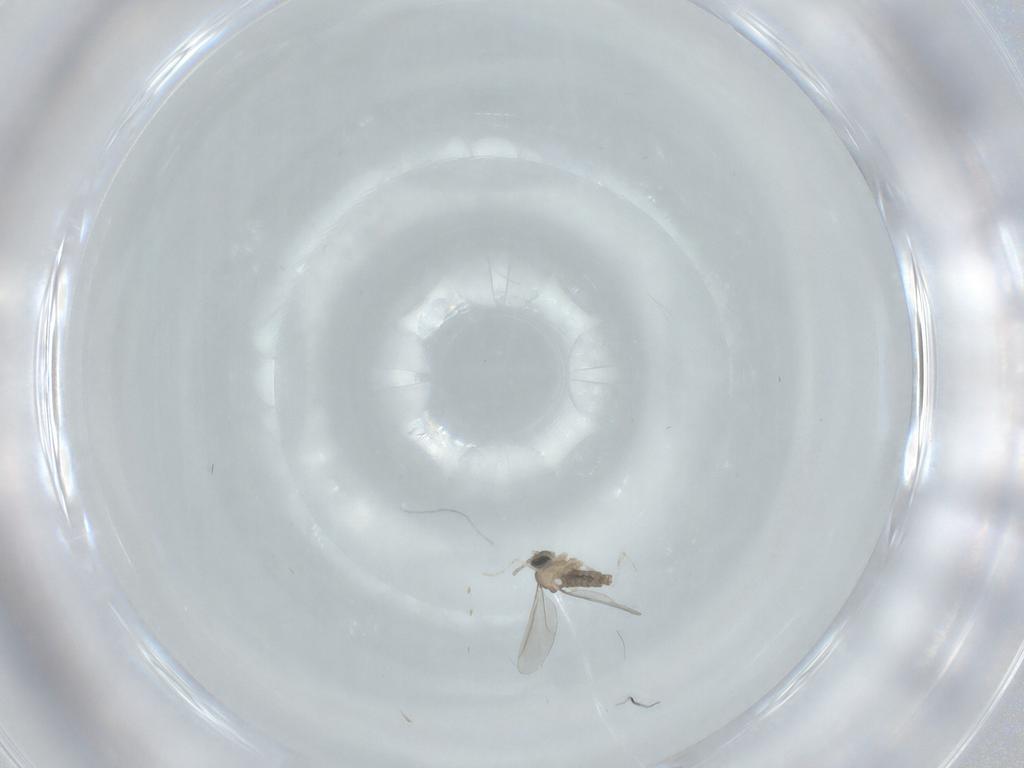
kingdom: Animalia
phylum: Arthropoda
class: Insecta
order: Diptera
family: Cecidomyiidae
